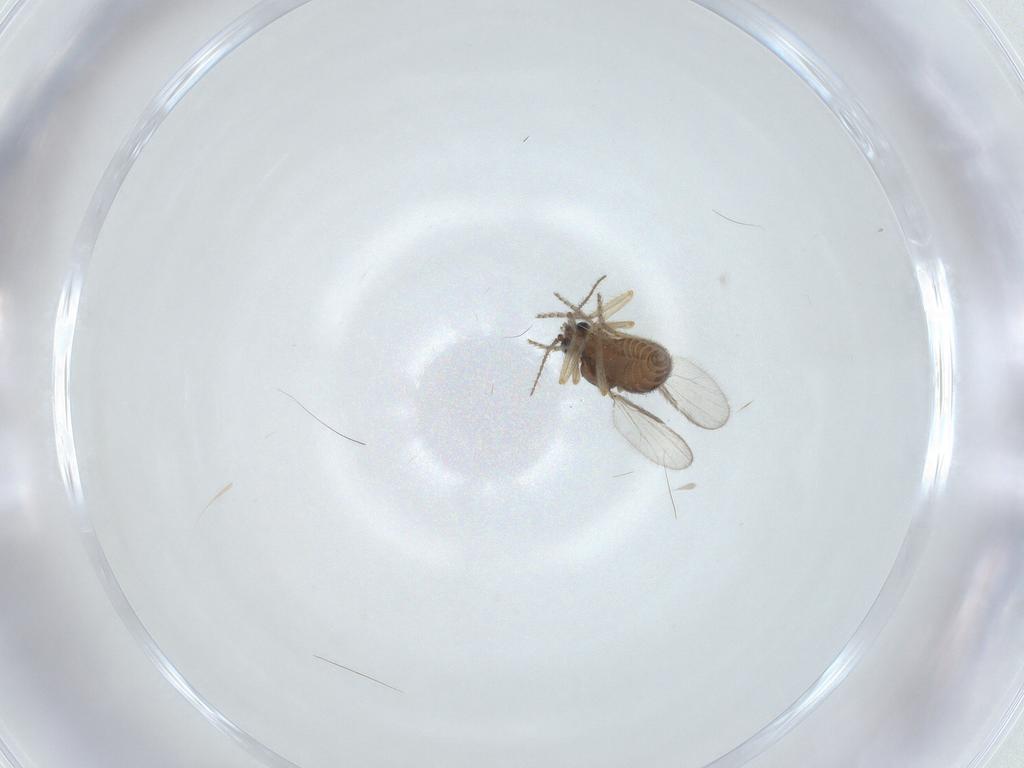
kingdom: Animalia
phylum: Arthropoda
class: Insecta
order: Diptera
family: Ceratopogonidae
